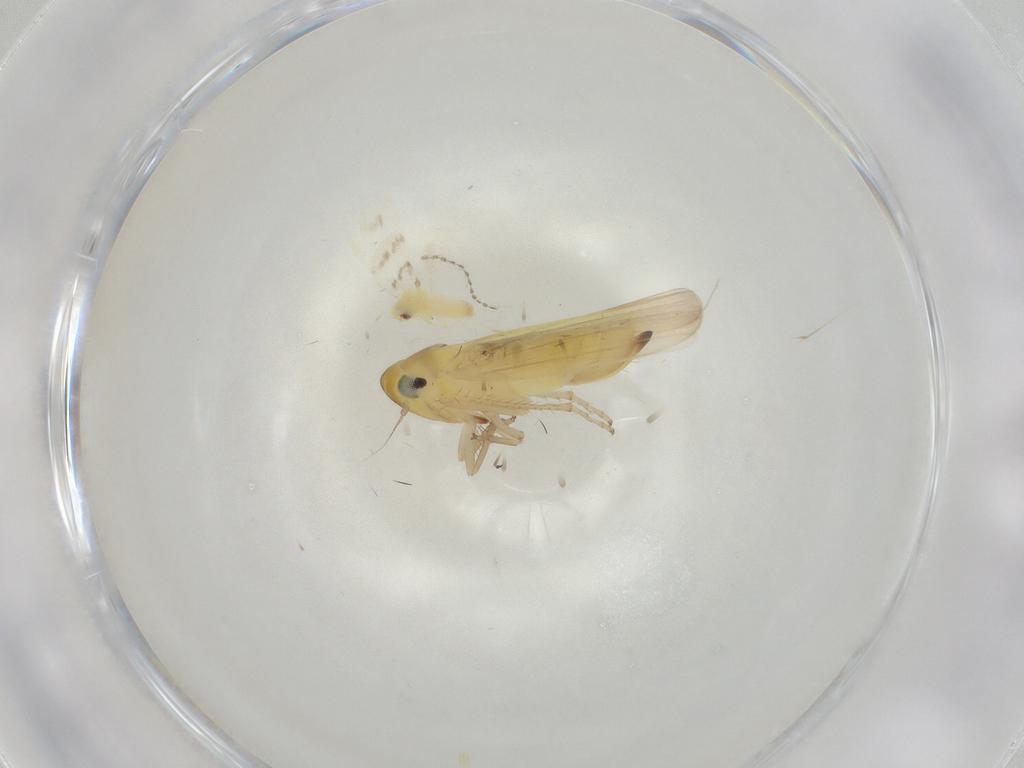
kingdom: Animalia
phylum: Arthropoda
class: Insecta
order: Hemiptera
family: Cicadellidae
